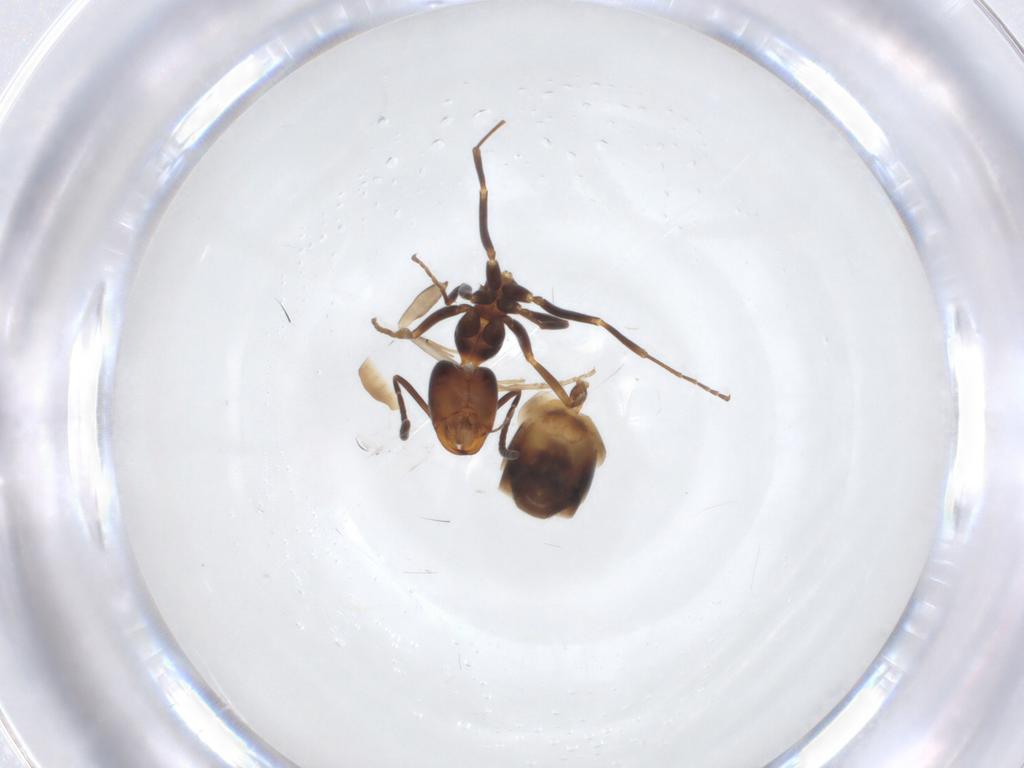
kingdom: Animalia
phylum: Arthropoda
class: Insecta
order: Hymenoptera
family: Formicidae
